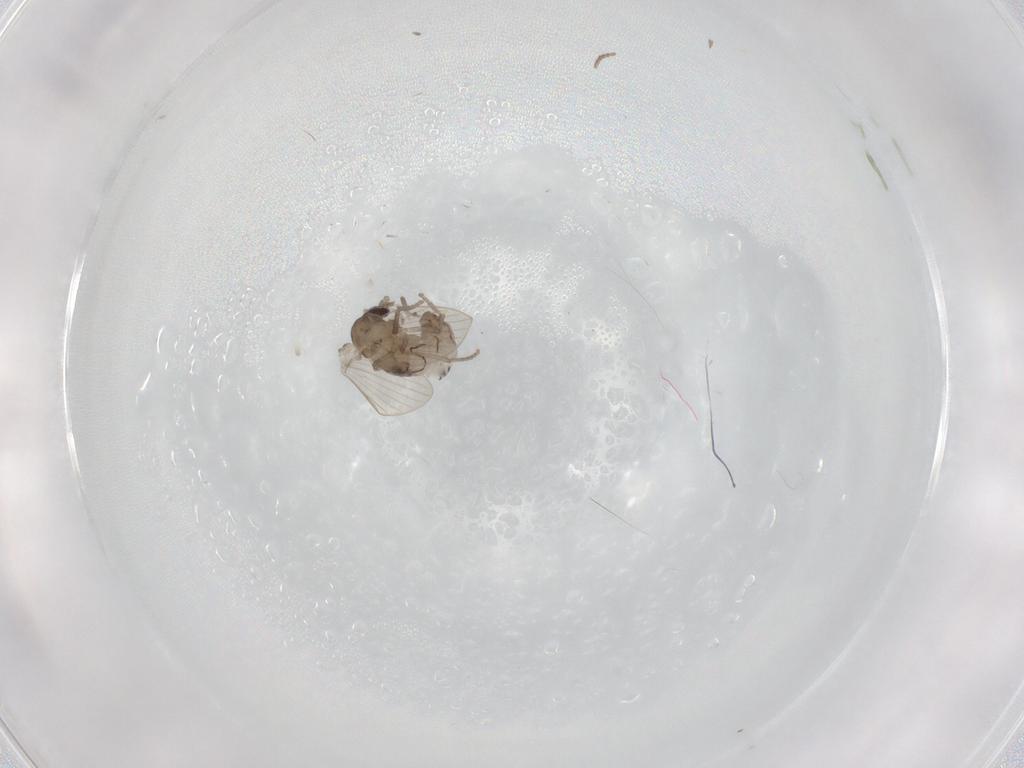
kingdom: Animalia
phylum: Arthropoda
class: Insecta
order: Diptera
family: Psychodidae
